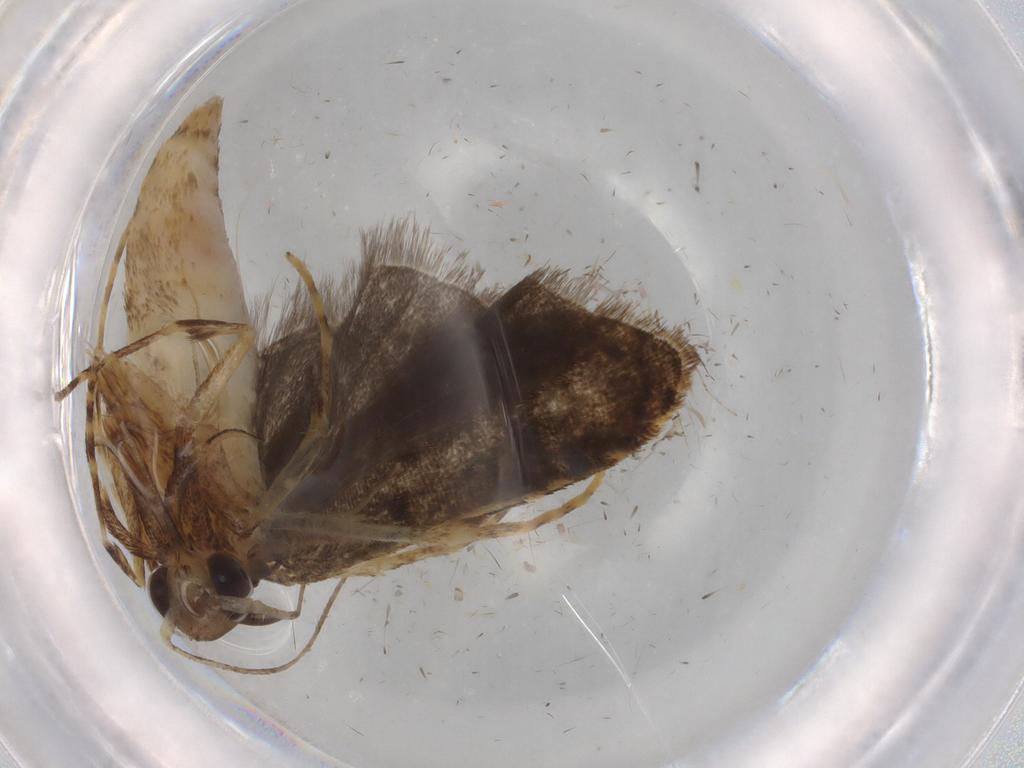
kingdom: Animalia
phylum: Arthropoda
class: Insecta
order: Lepidoptera
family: Autostichidae
